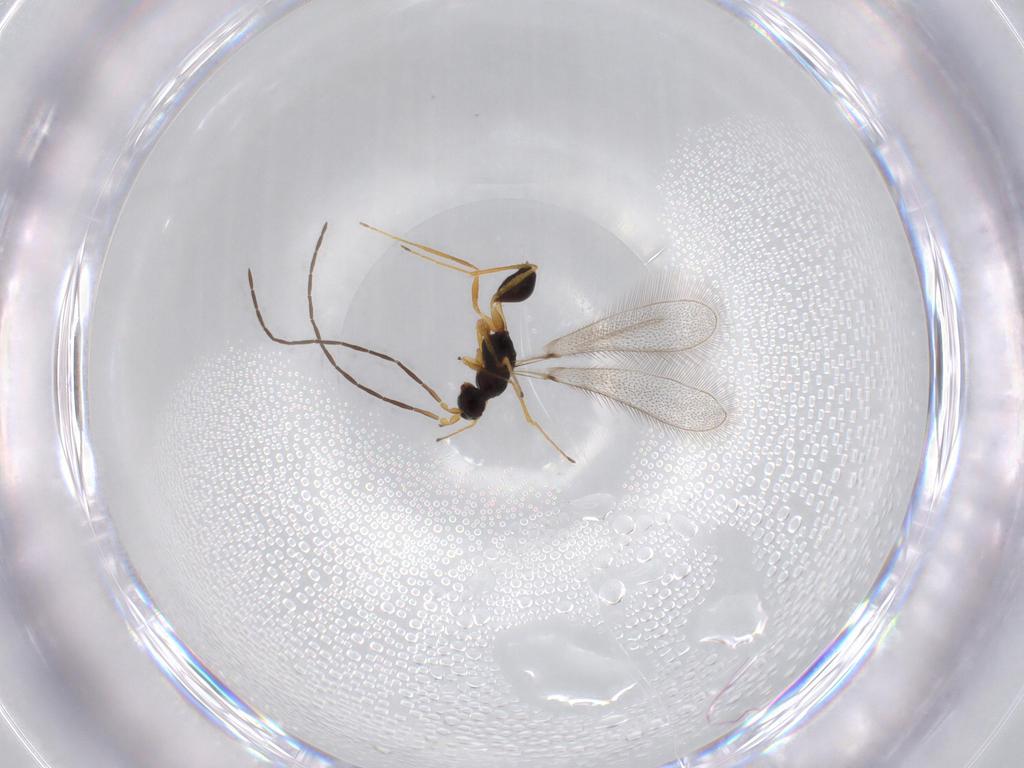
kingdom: Animalia
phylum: Arthropoda
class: Insecta
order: Hymenoptera
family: Mymaridae
